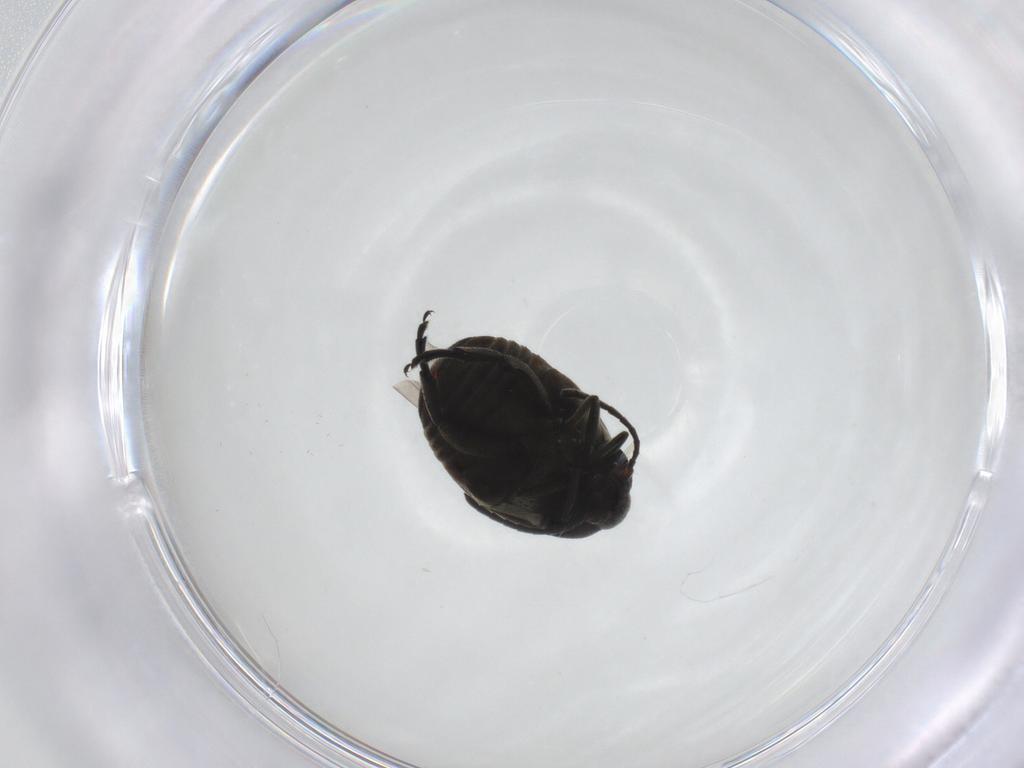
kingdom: Animalia
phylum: Arthropoda
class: Insecta
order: Coleoptera
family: Chrysomelidae
